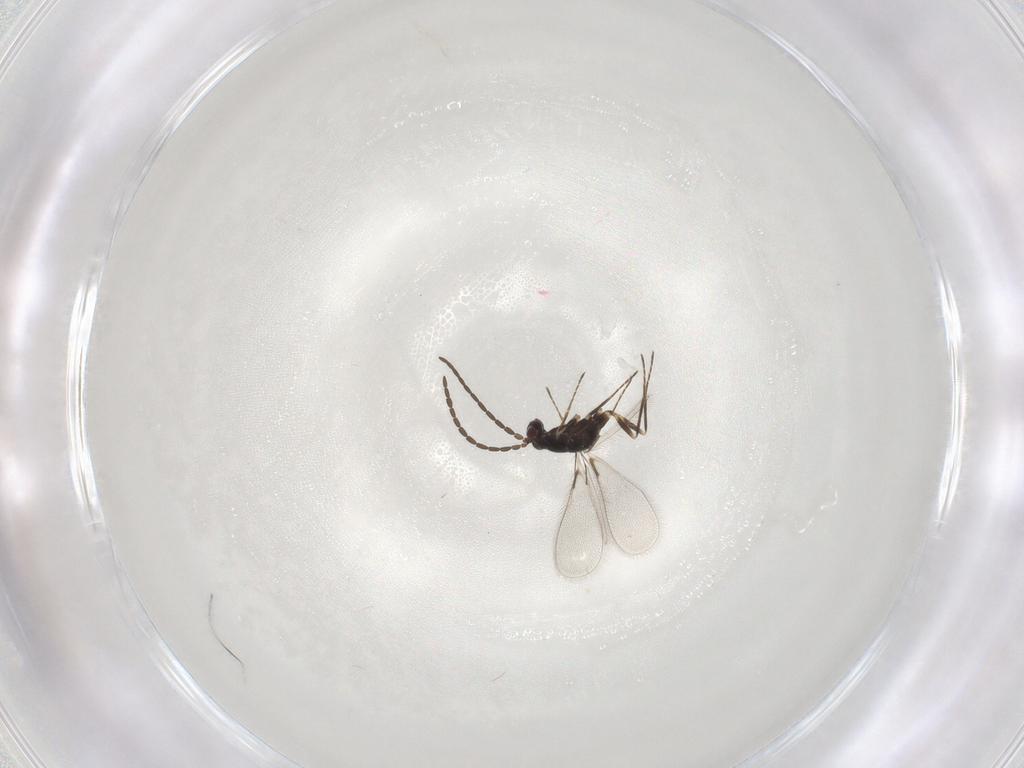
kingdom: Animalia
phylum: Arthropoda
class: Insecta
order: Hymenoptera
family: Mymaridae
